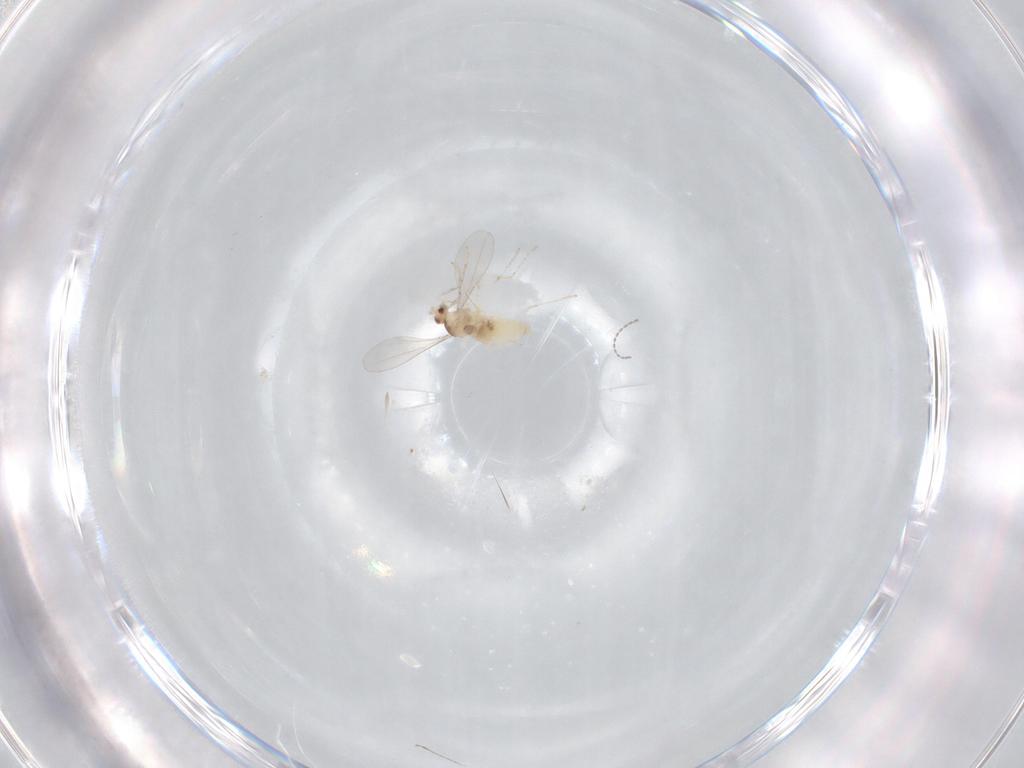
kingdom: Animalia
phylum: Arthropoda
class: Insecta
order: Diptera
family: Cecidomyiidae
